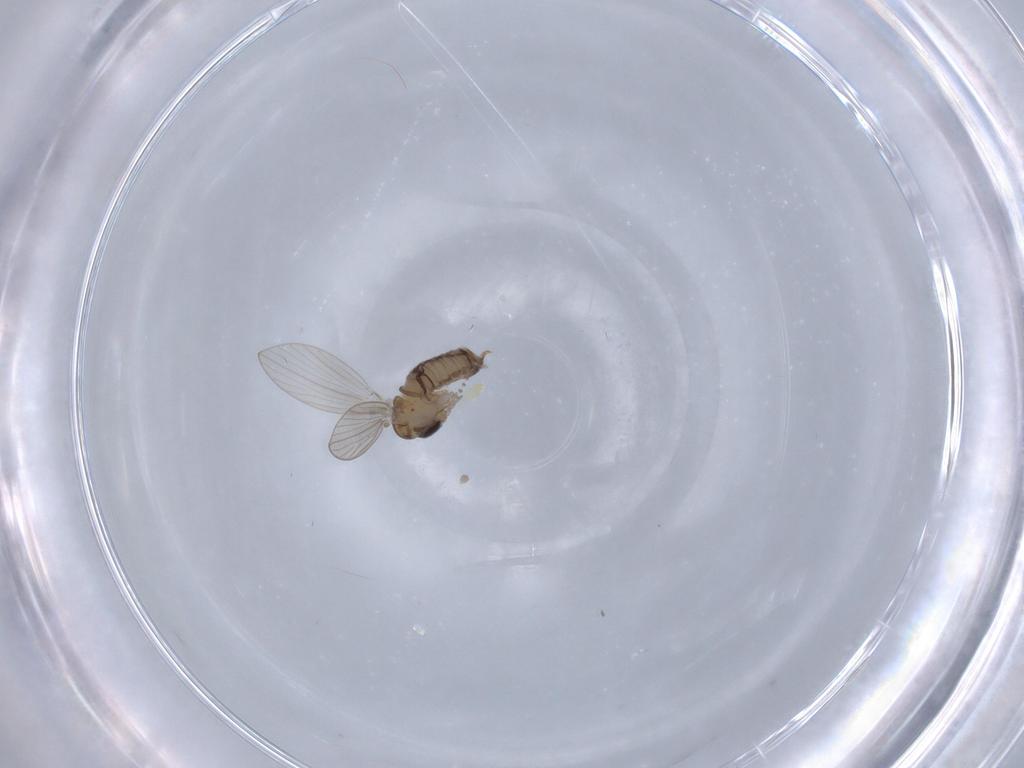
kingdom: Animalia
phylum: Arthropoda
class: Insecta
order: Diptera
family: Psychodidae
